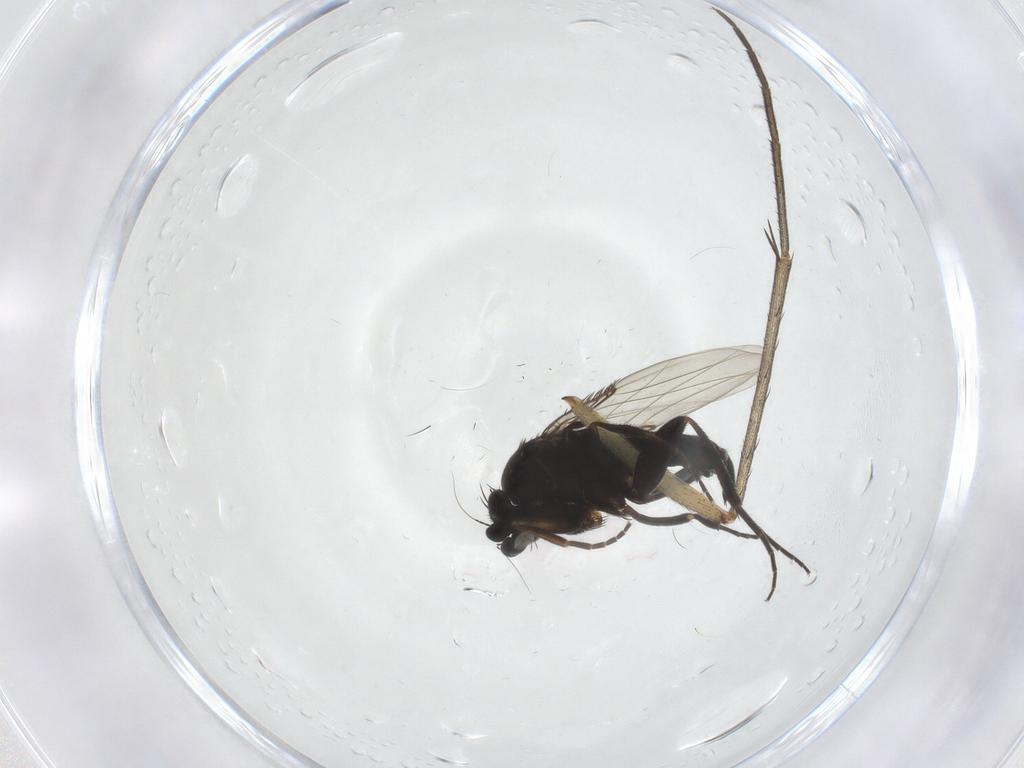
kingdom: Animalia
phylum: Arthropoda
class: Insecta
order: Diptera
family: Phoridae
